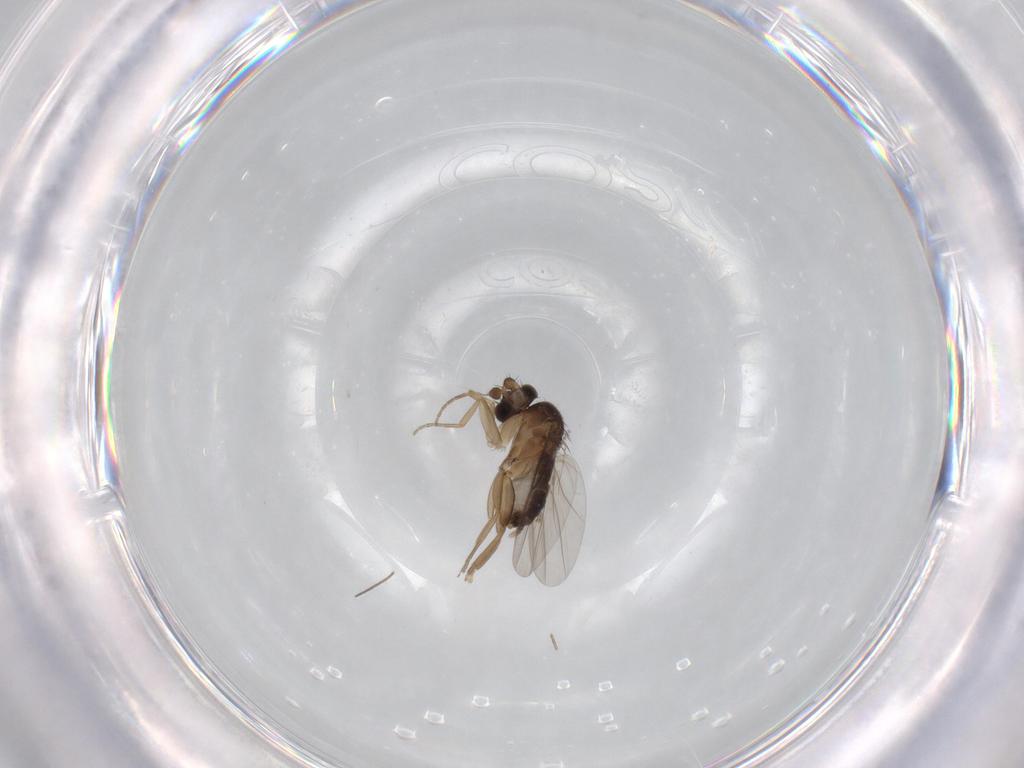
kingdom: Animalia
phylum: Arthropoda
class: Insecta
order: Diptera
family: Phoridae
